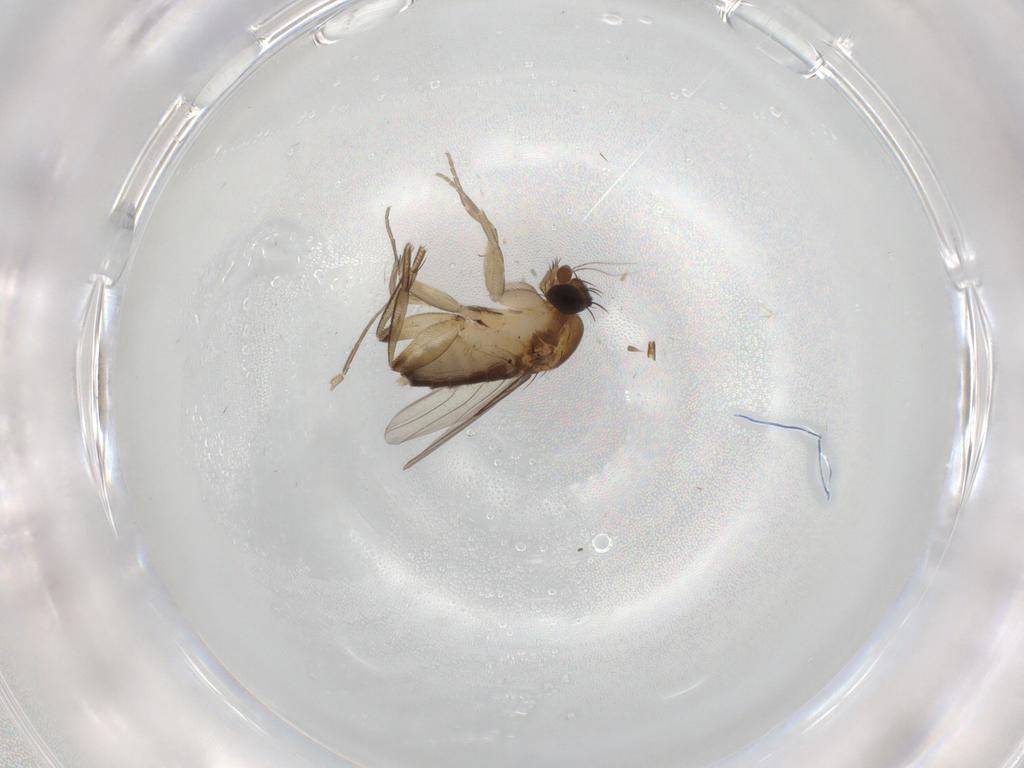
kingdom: Animalia
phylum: Arthropoda
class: Insecta
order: Diptera
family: Phoridae
